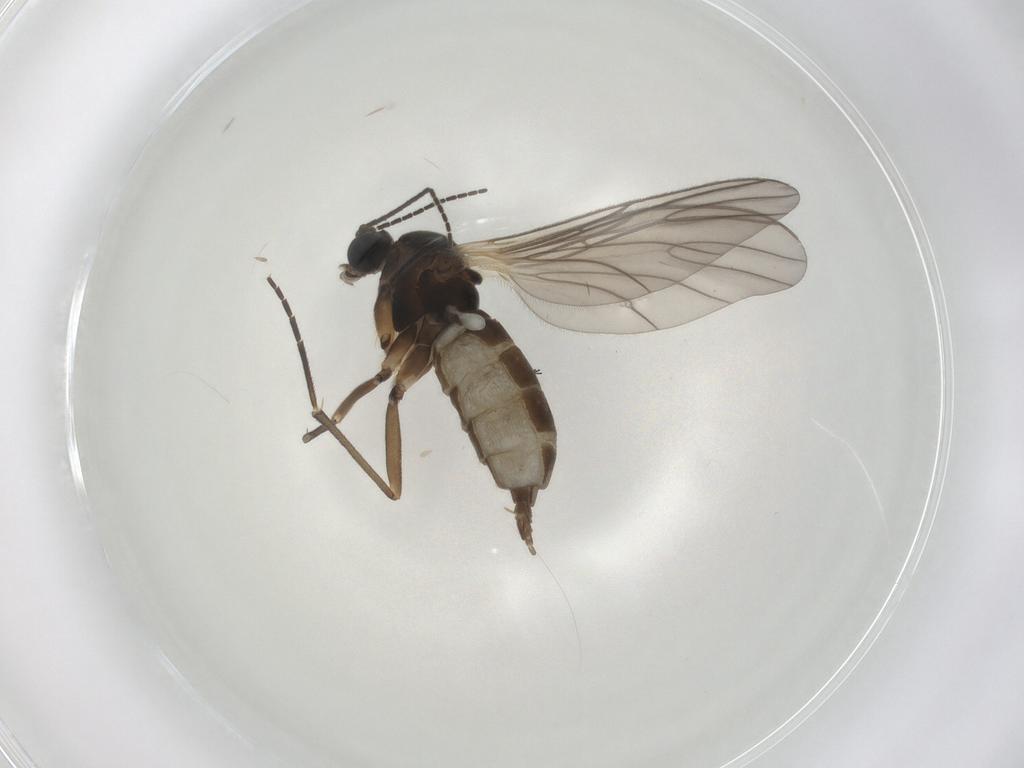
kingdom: Animalia
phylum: Arthropoda
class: Insecta
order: Diptera
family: Sciaridae
